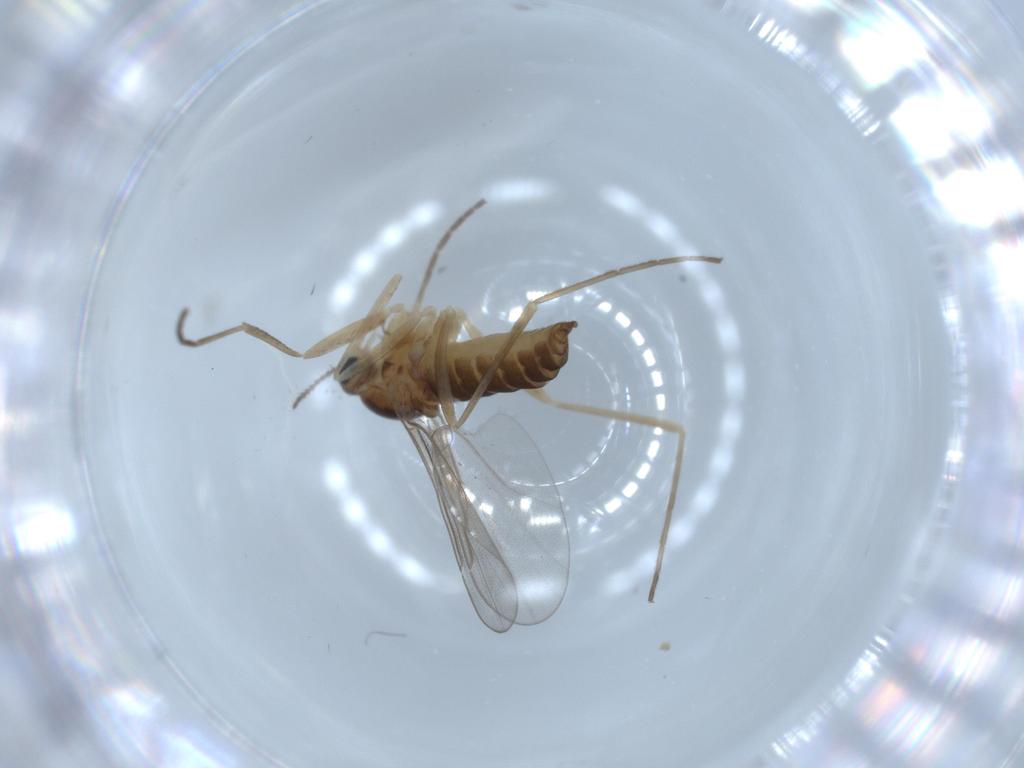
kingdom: Animalia
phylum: Arthropoda
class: Insecta
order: Diptera
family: Cecidomyiidae
